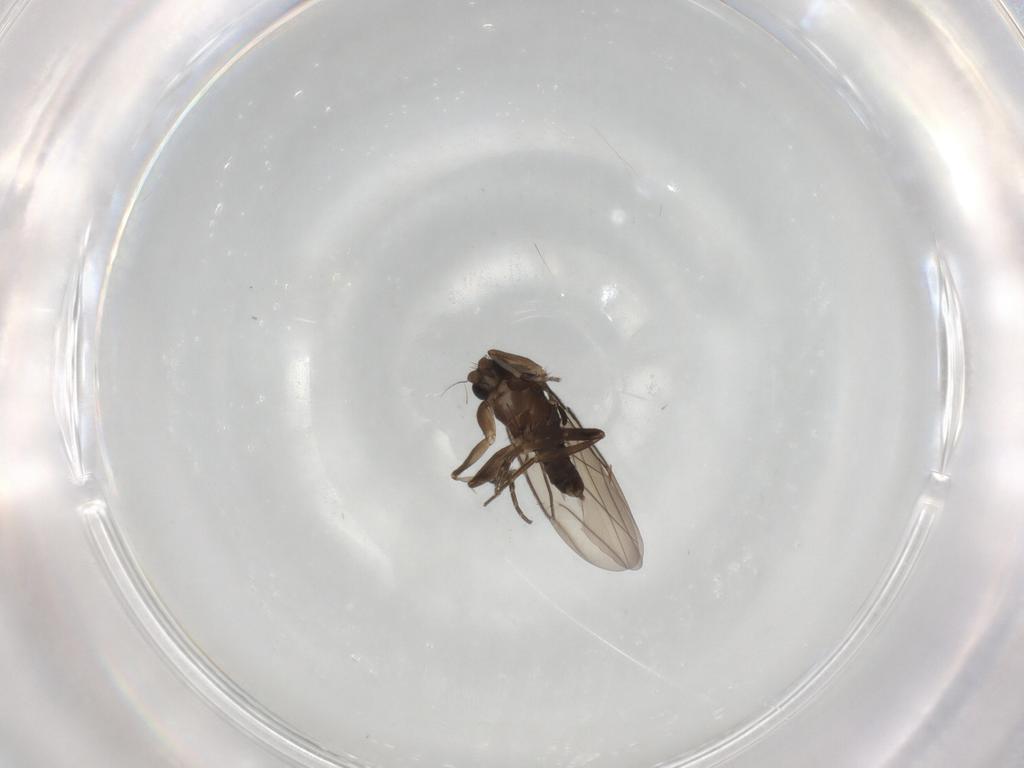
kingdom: Animalia
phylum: Arthropoda
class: Insecta
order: Diptera
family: Phoridae
